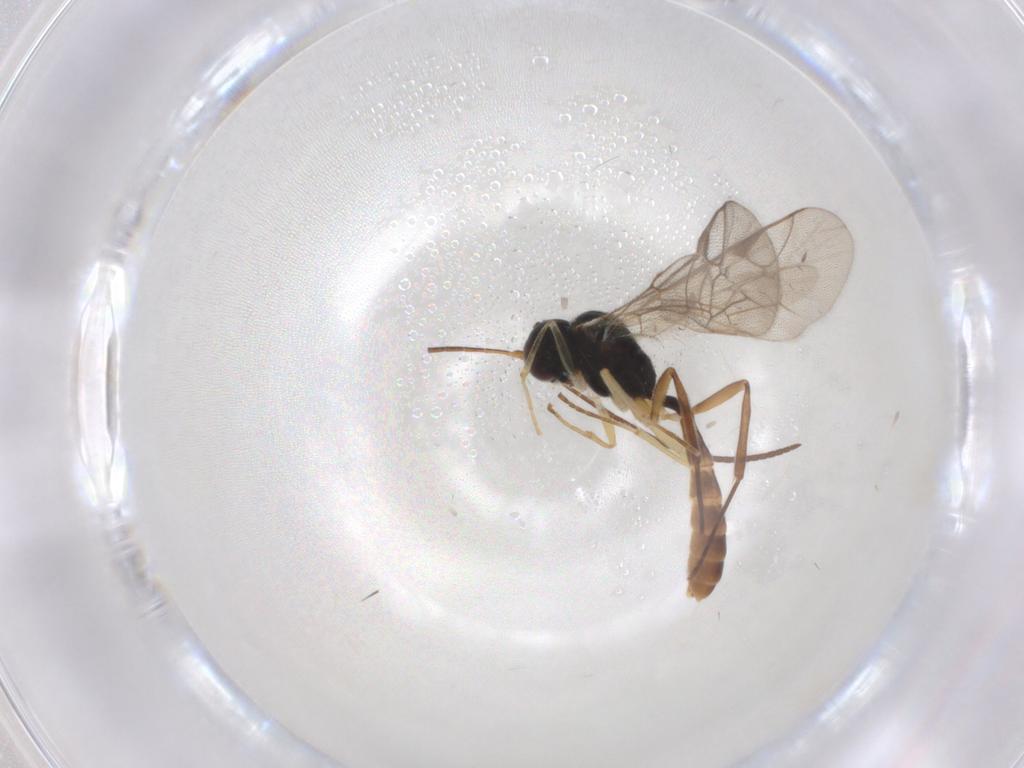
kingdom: Animalia
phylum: Arthropoda
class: Insecta
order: Hymenoptera
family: Ichneumonidae
